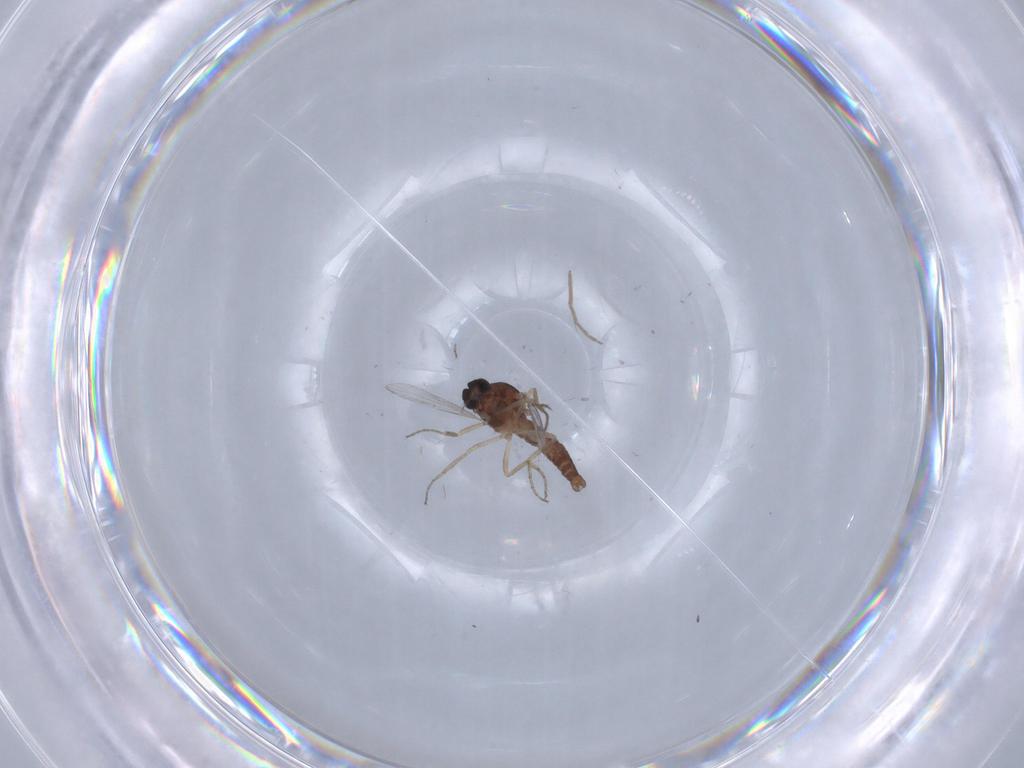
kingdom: Animalia
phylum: Arthropoda
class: Insecta
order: Diptera
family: Ceratopogonidae
